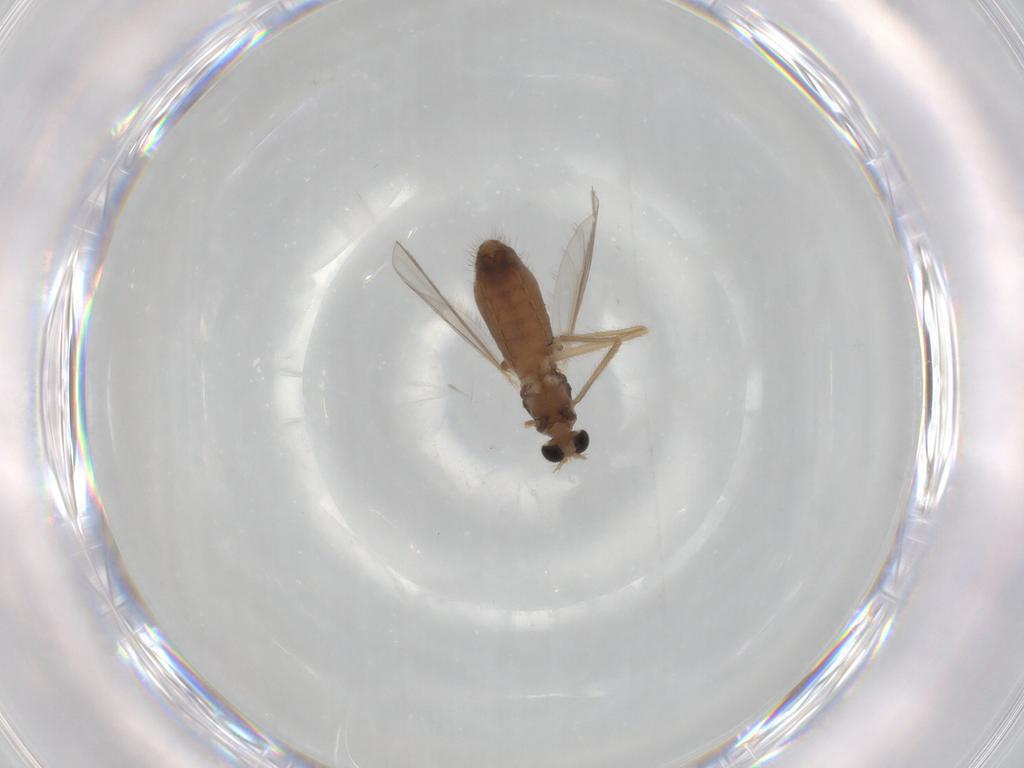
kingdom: Animalia
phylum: Arthropoda
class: Insecta
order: Diptera
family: Chironomidae
